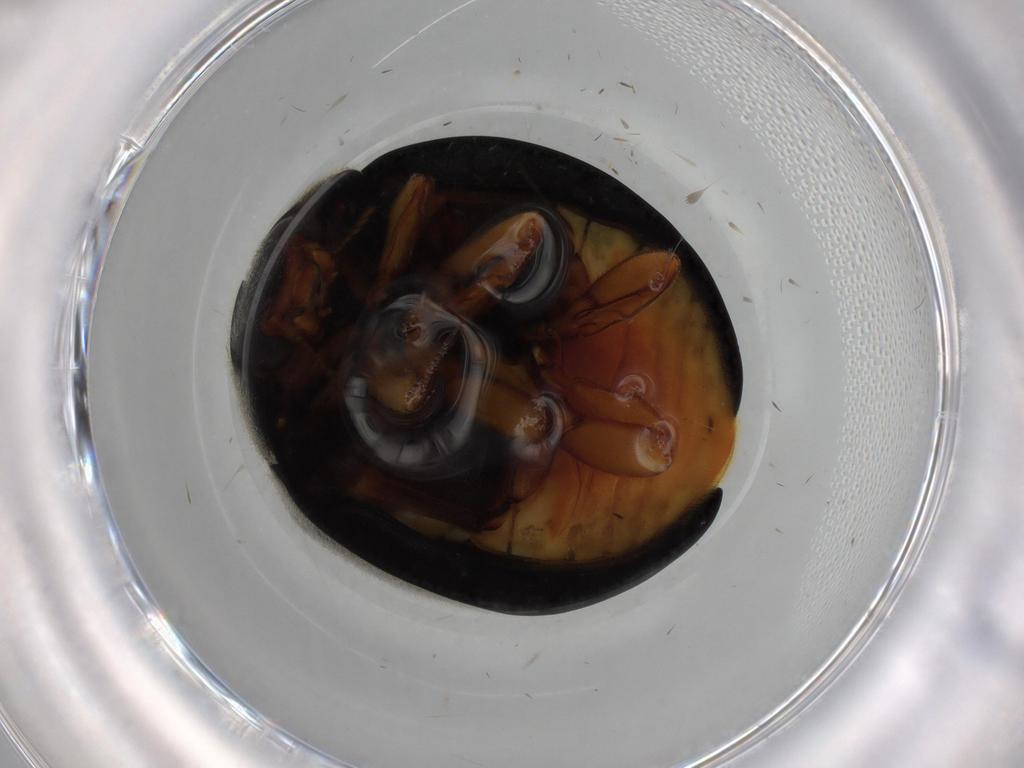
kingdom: Animalia
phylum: Arthropoda
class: Insecta
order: Coleoptera
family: Coccinellidae
